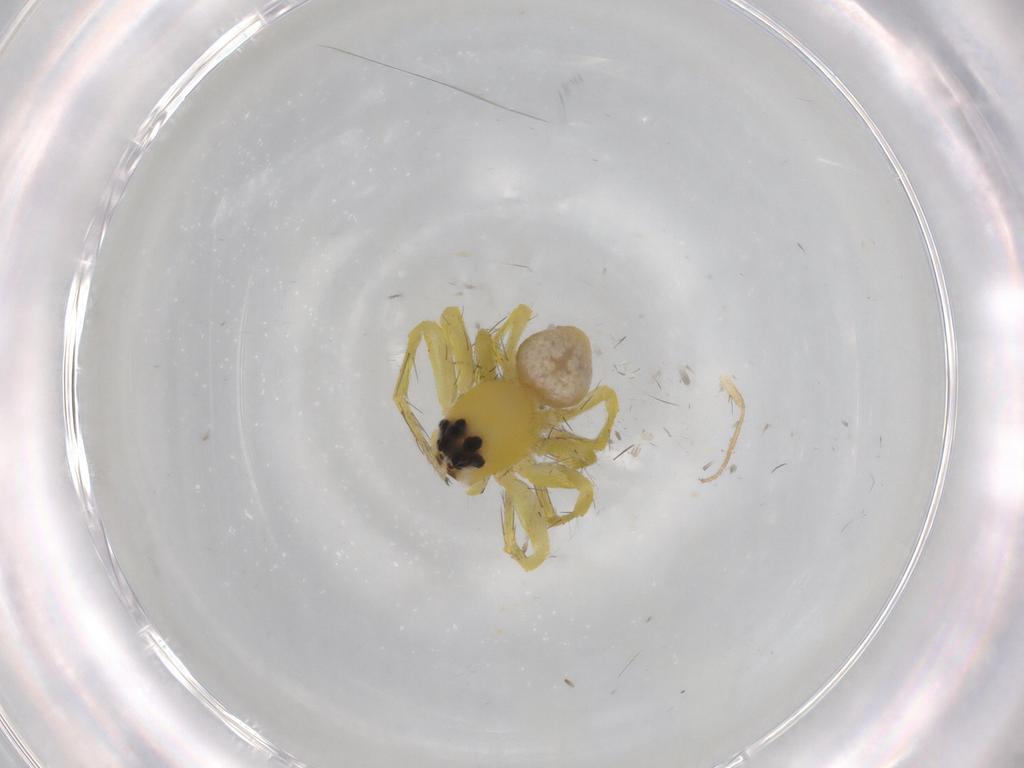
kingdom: Animalia
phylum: Arthropoda
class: Arachnida
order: Araneae
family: Oxyopidae
